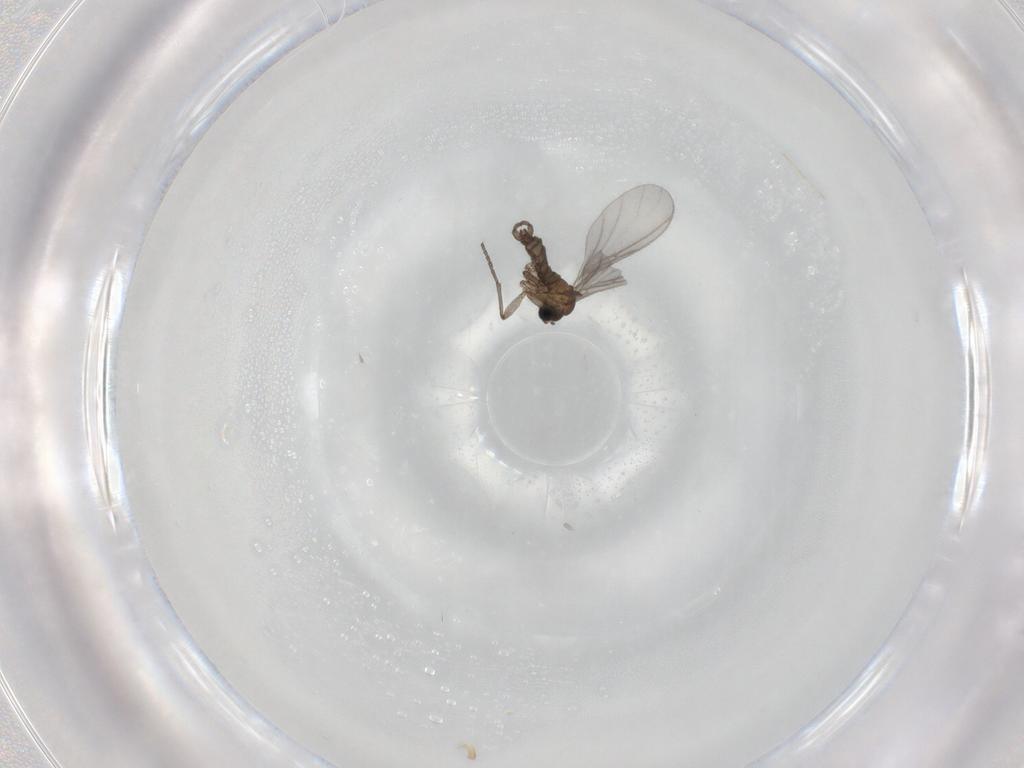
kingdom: Animalia
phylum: Arthropoda
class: Insecta
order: Diptera
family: Sciaridae
